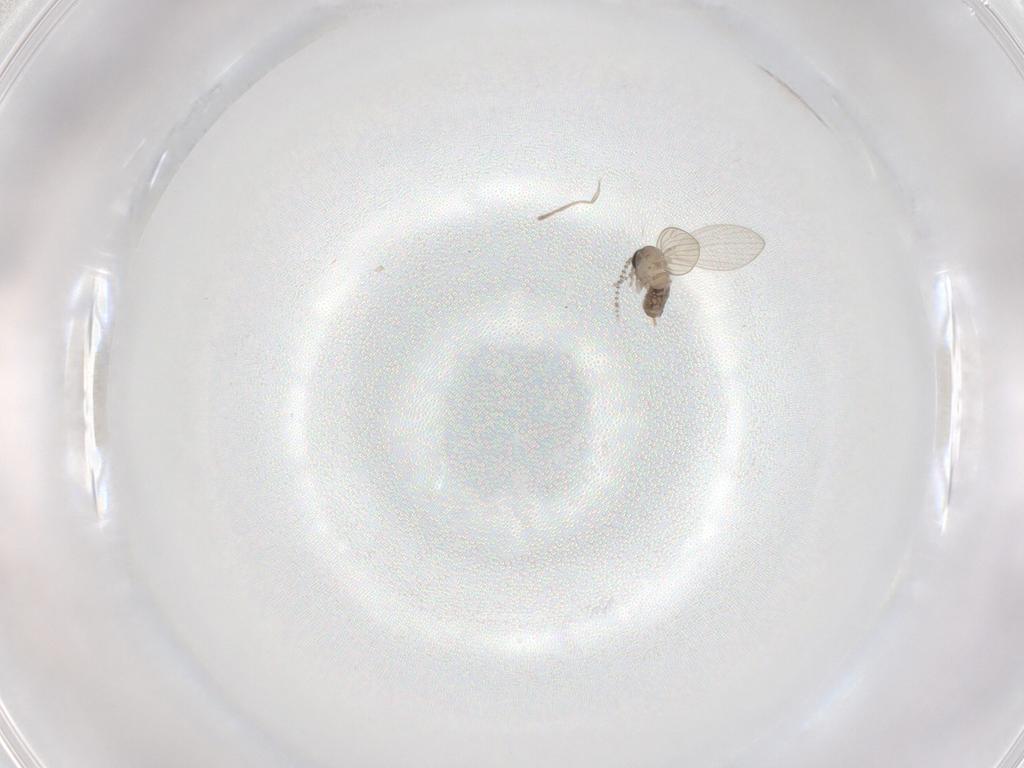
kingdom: Animalia
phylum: Arthropoda
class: Insecta
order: Diptera
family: Psychodidae
